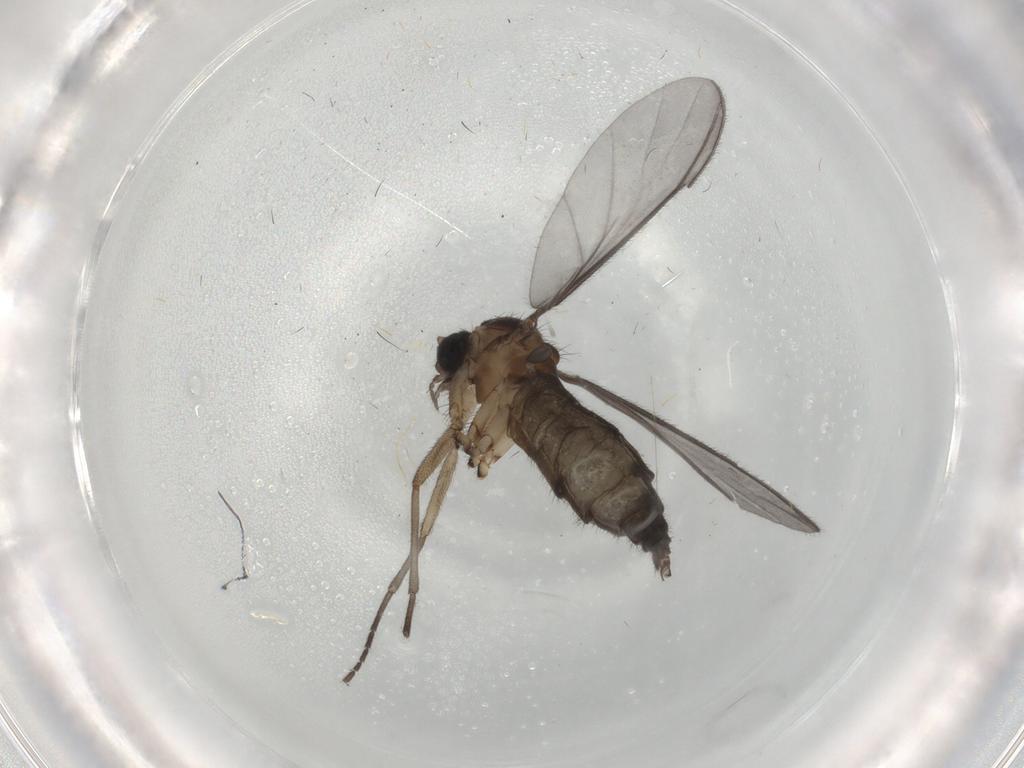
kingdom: Animalia
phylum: Arthropoda
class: Insecta
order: Diptera
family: Sciaridae
